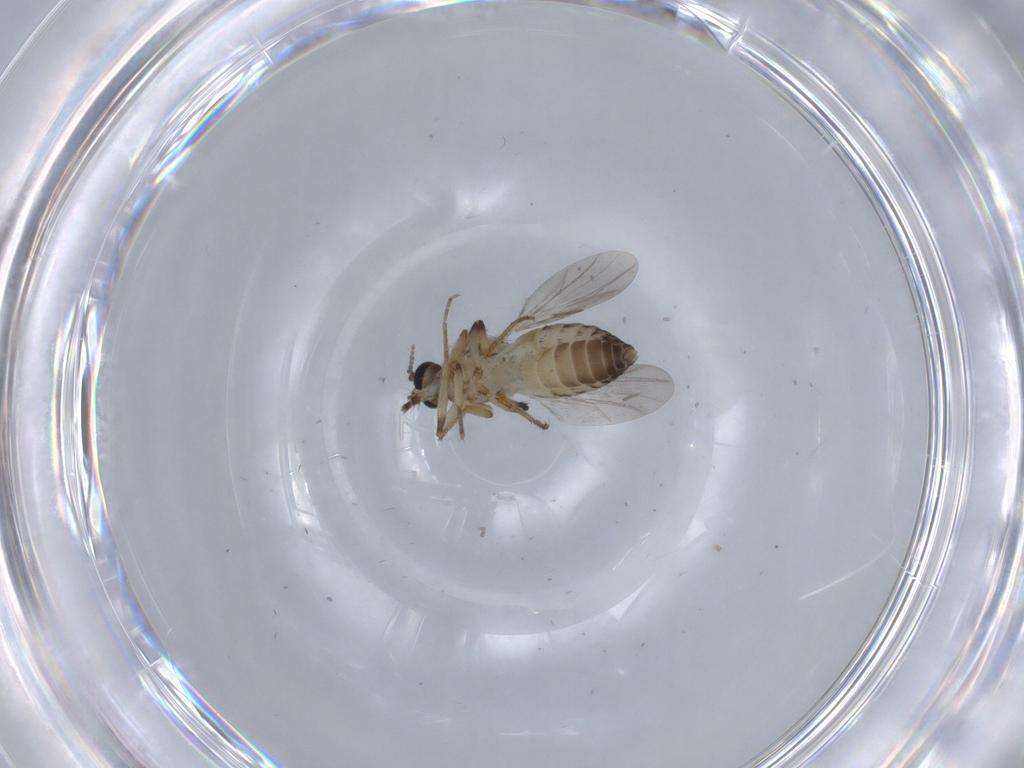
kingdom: Animalia
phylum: Arthropoda
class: Insecta
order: Diptera
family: Ceratopogonidae
